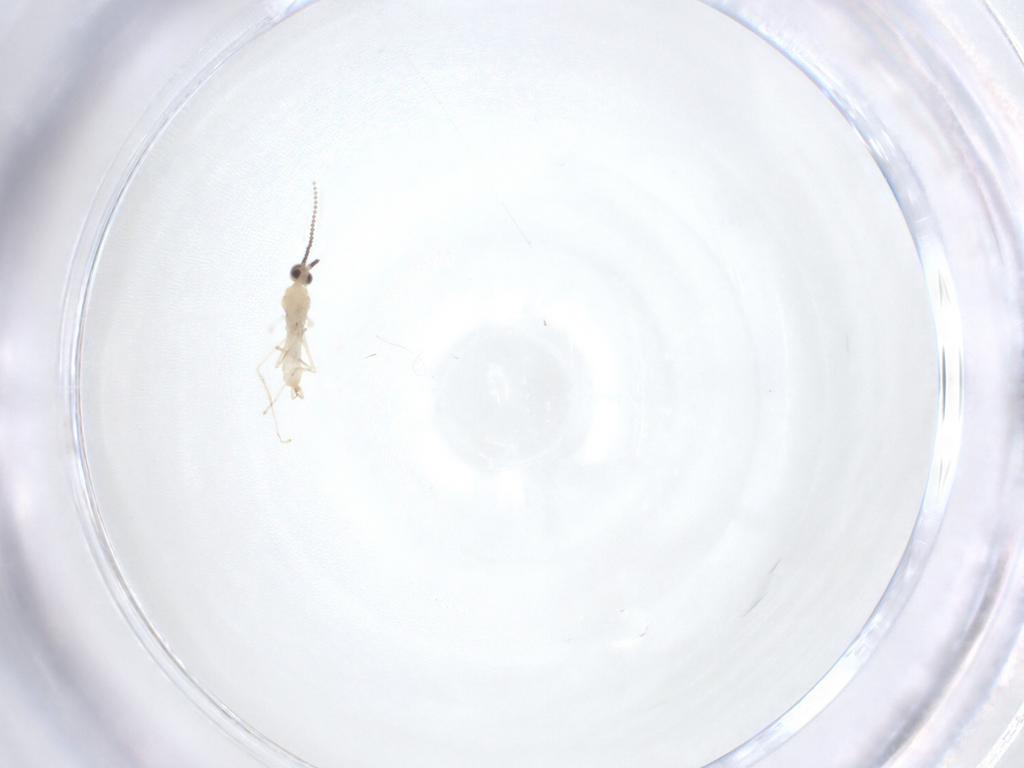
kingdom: Animalia
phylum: Arthropoda
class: Insecta
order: Diptera
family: Cecidomyiidae
